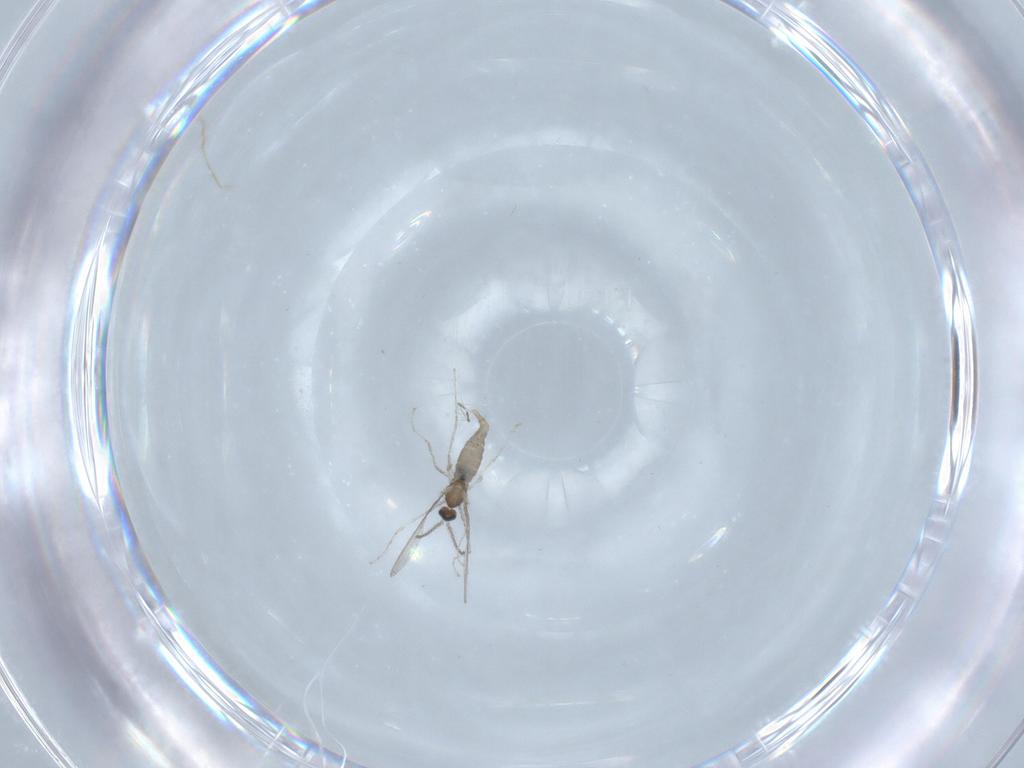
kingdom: Animalia
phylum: Arthropoda
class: Insecta
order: Diptera
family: Chironomidae
